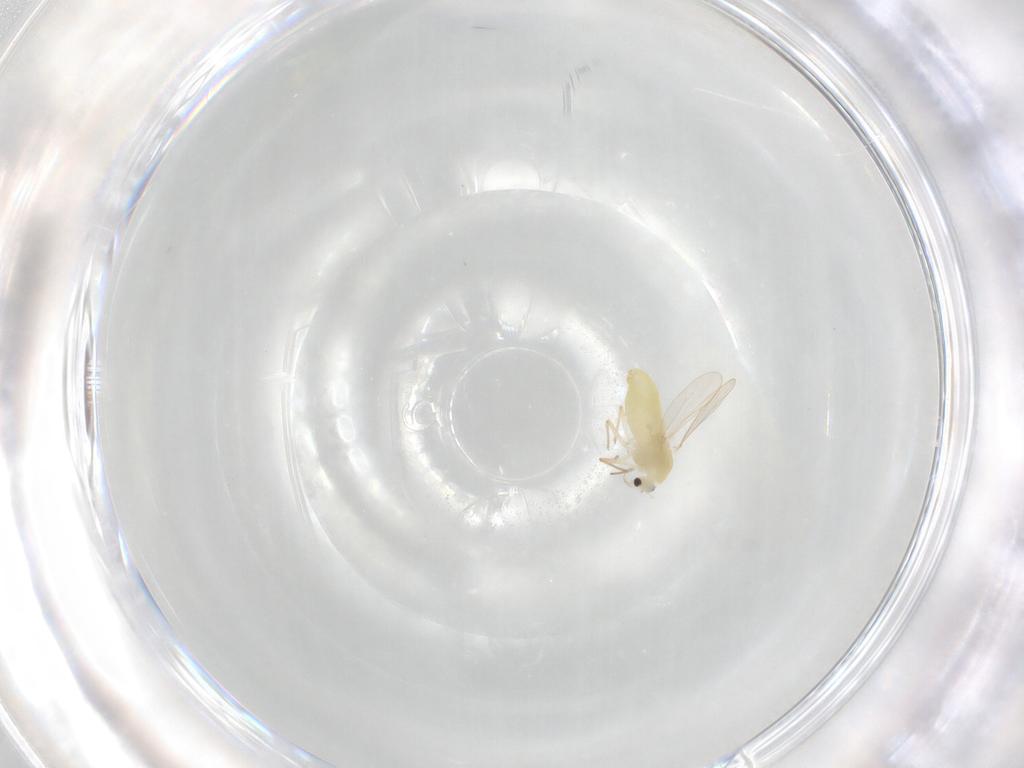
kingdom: Animalia
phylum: Arthropoda
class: Insecta
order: Diptera
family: Chironomidae
